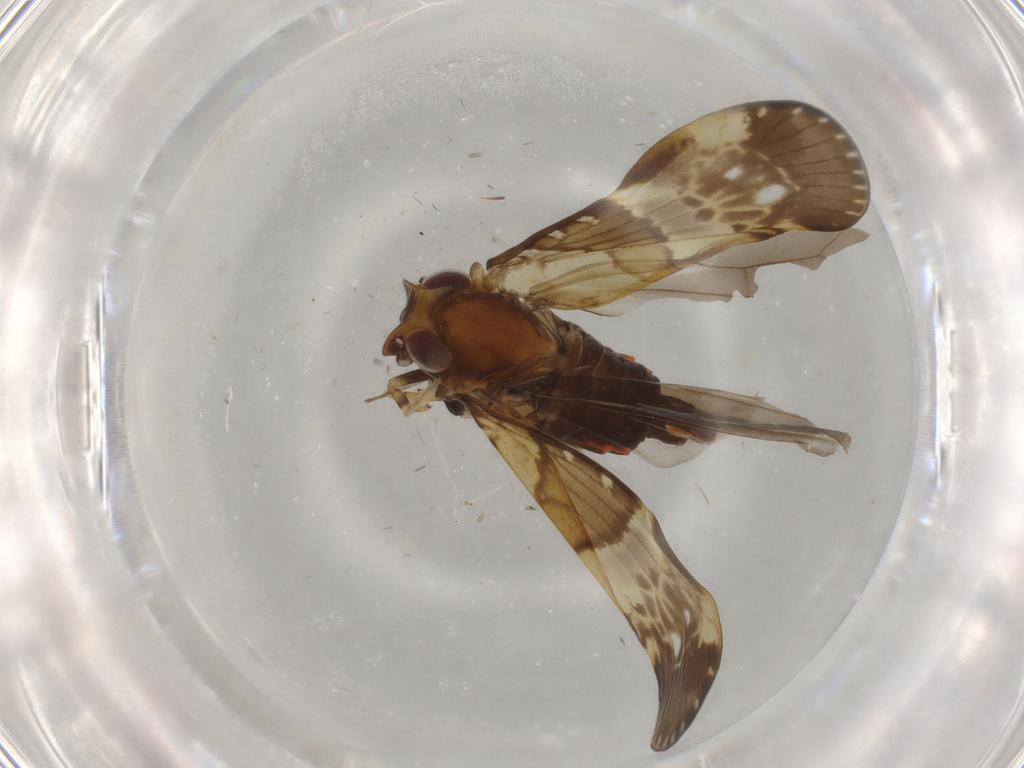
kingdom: Animalia
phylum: Arthropoda
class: Insecta
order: Hemiptera
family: Cixiidae
